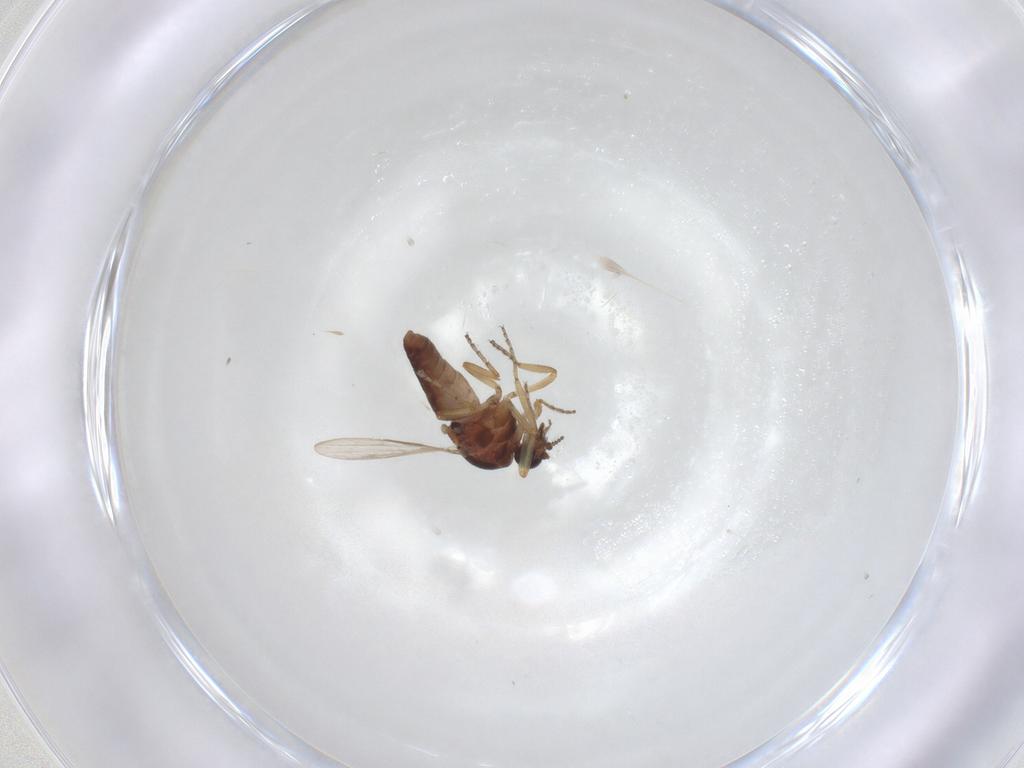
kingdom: Animalia
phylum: Arthropoda
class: Insecta
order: Diptera
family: Ceratopogonidae
